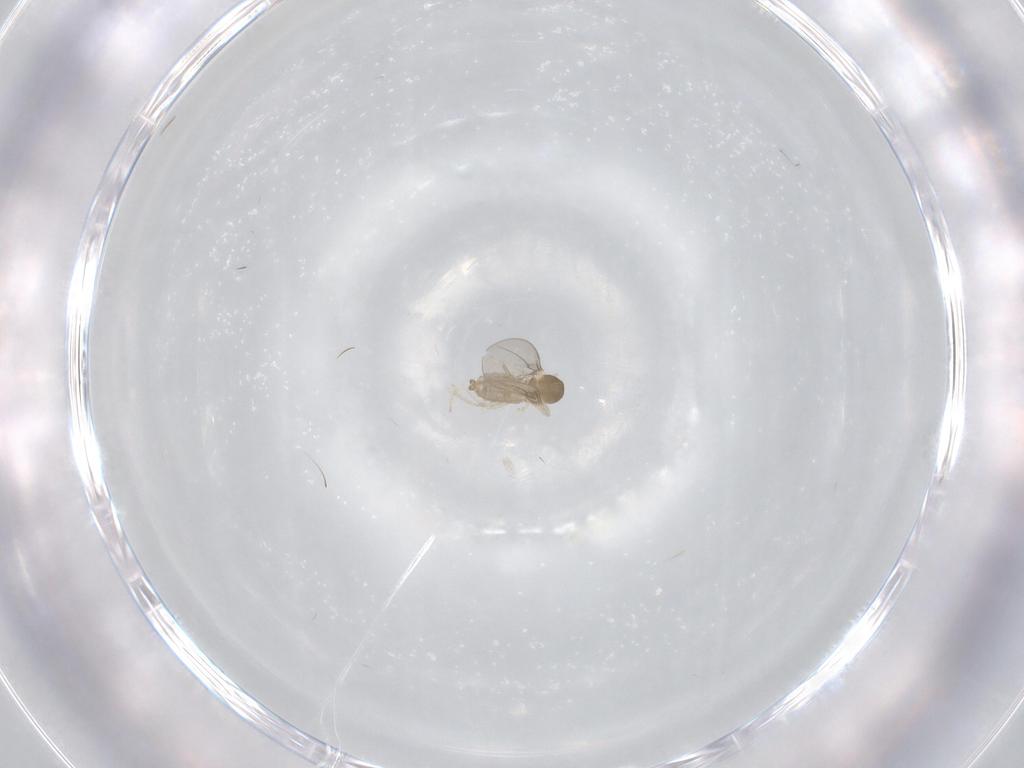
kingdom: Animalia
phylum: Arthropoda
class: Insecta
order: Diptera
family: Cecidomyiidae
